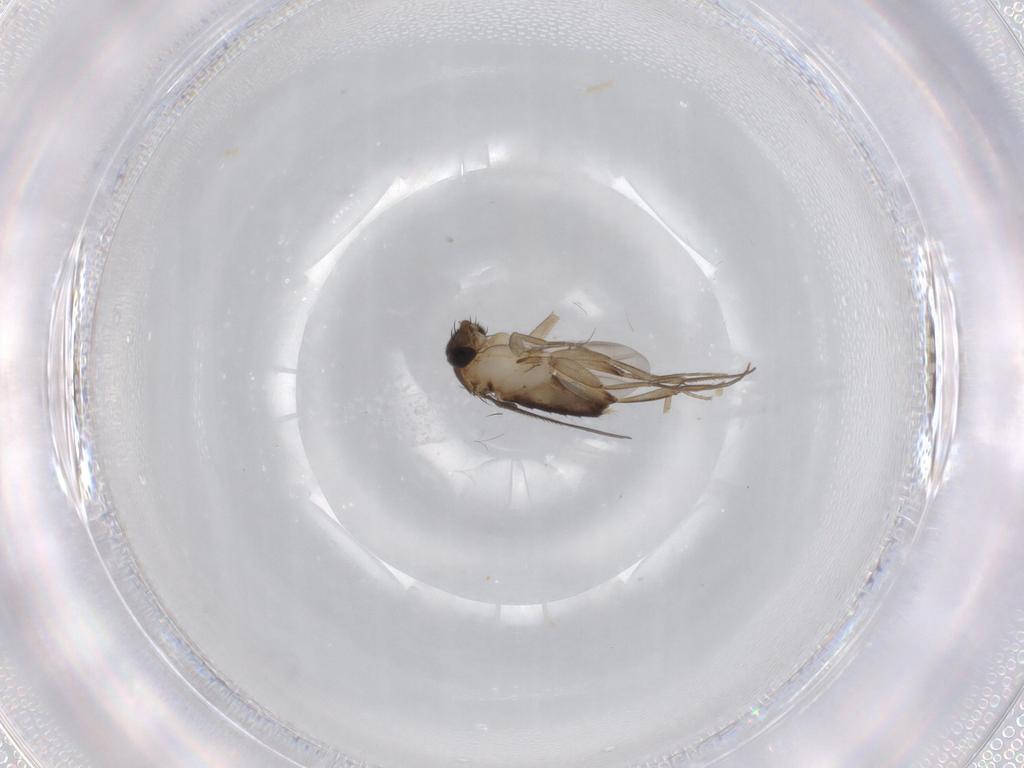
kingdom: Animalia
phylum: Arthropoda
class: Insecta
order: Diptera
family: Phoridae
